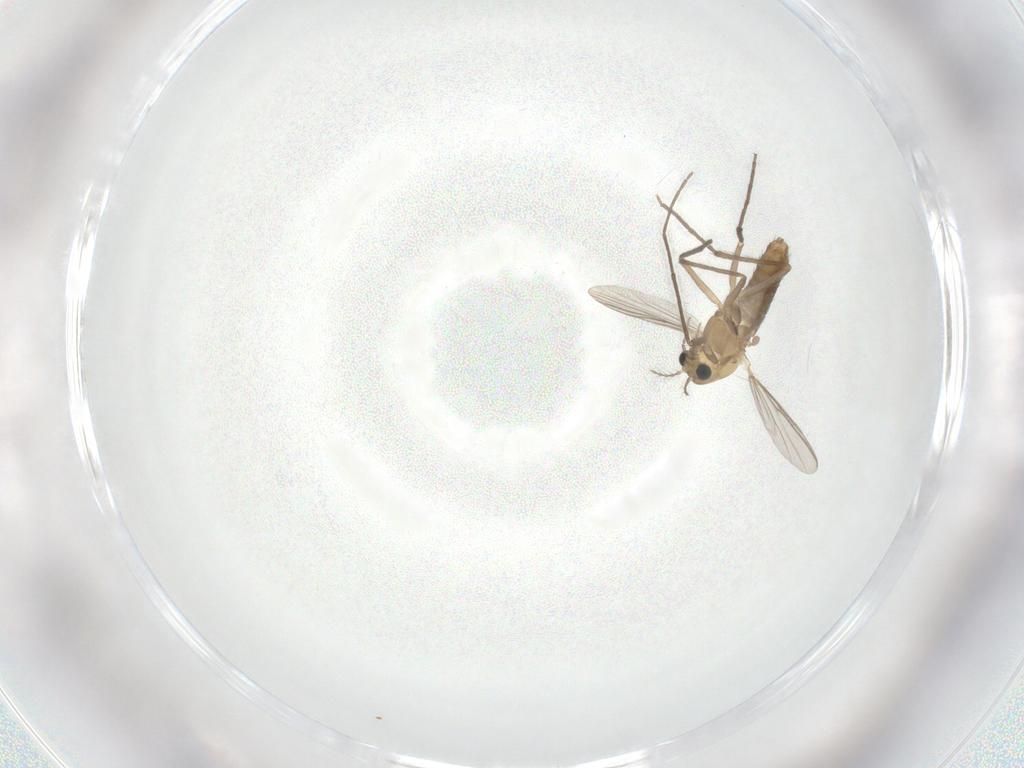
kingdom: Animalia
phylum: Arthropoda
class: Insecta
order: Diptera
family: Chironomidae
